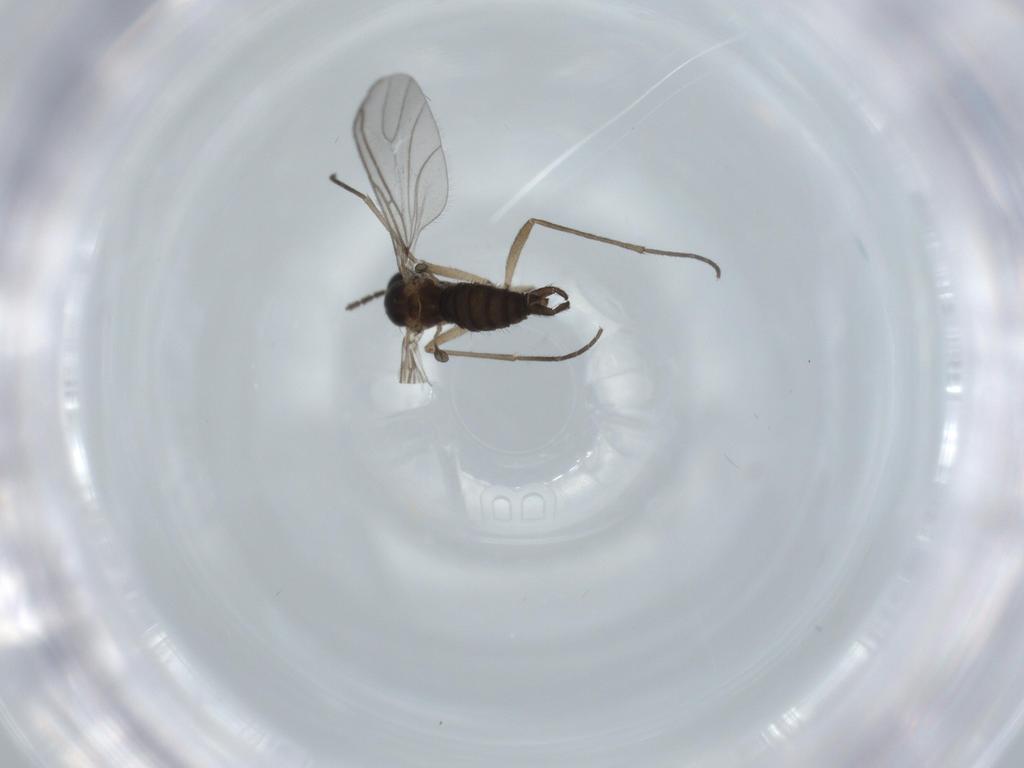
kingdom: Animalia
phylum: Arthropoda
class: Insecta
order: Diptera
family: Sciaridae
